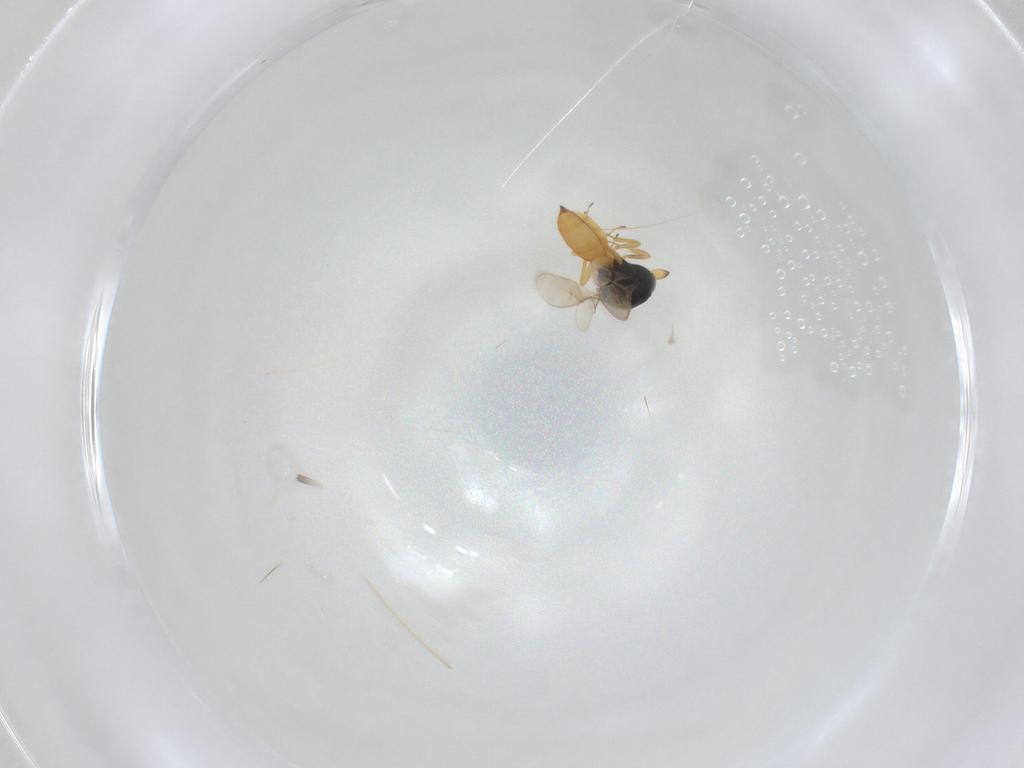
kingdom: Animalia
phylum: Arthropoda
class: Insecta
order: Hymenoptera
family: Scelionidae
